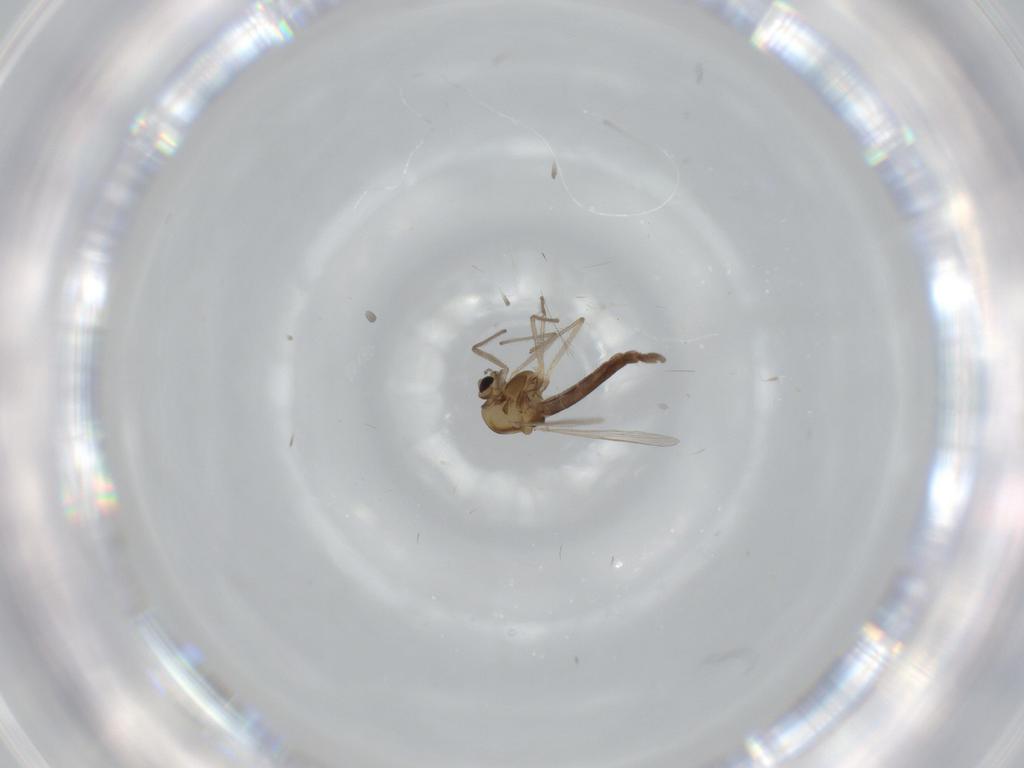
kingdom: Animalia
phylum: Arthropoda
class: Insecta
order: Diptera
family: Chironomidae
